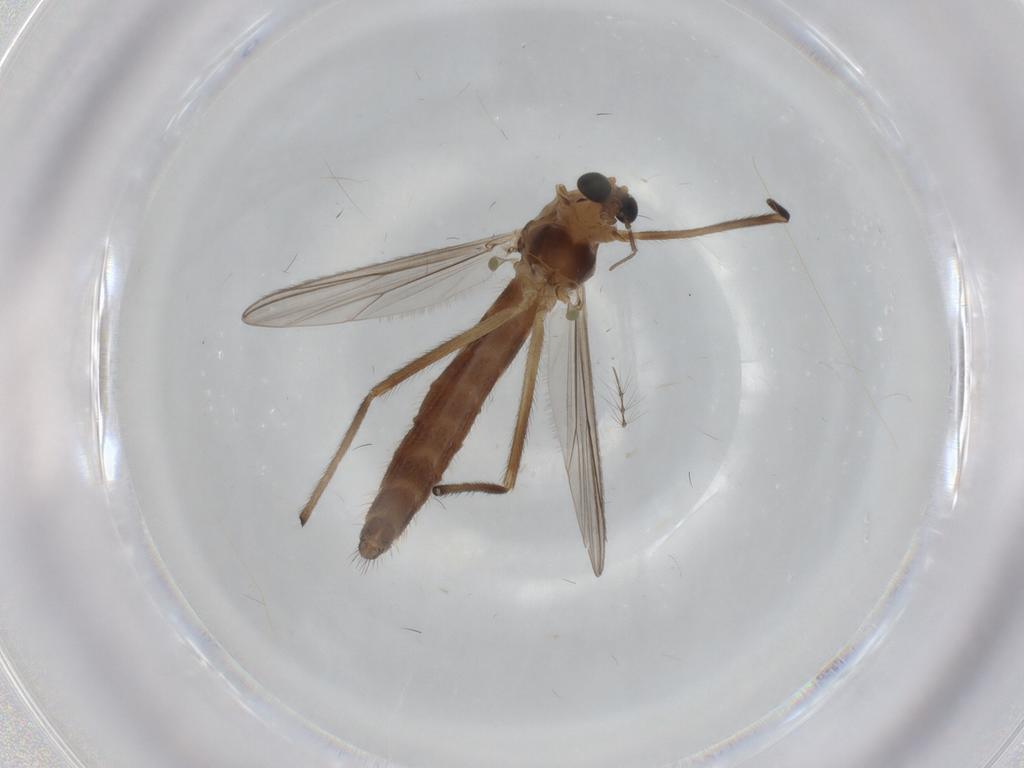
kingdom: Animalia
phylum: Arthropoda
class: Insecta
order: Diptera
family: Chironomidae
